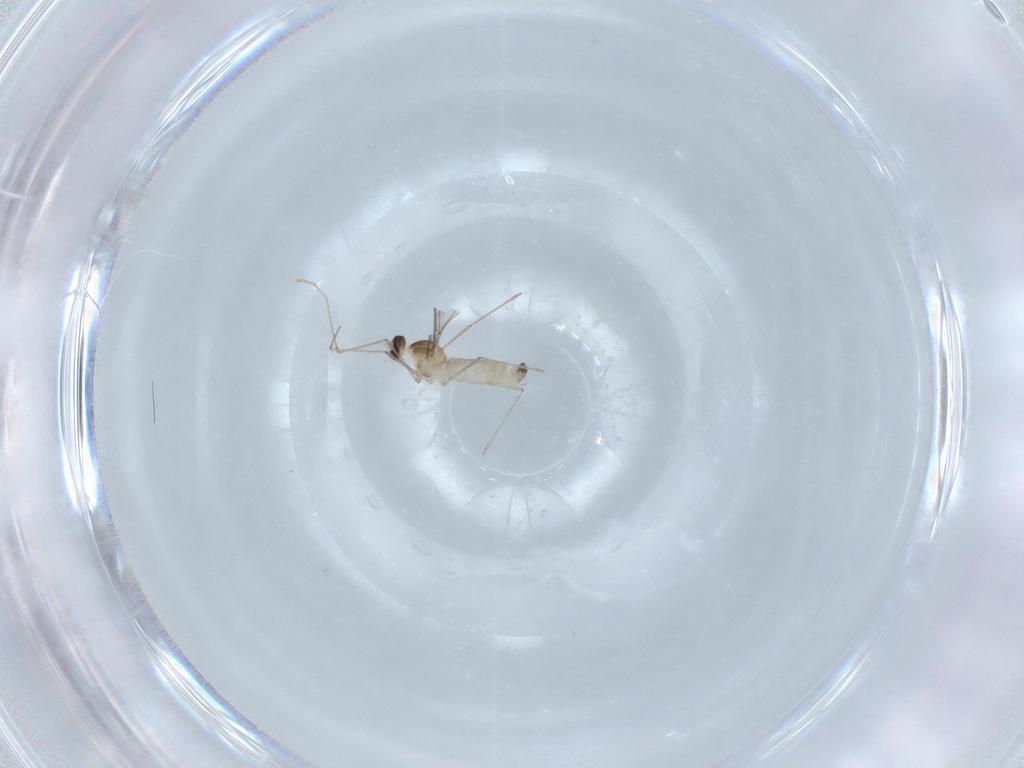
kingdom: Animalia
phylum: Arthropoda
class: Insecta
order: Diptera
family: Cecidomyiidae
